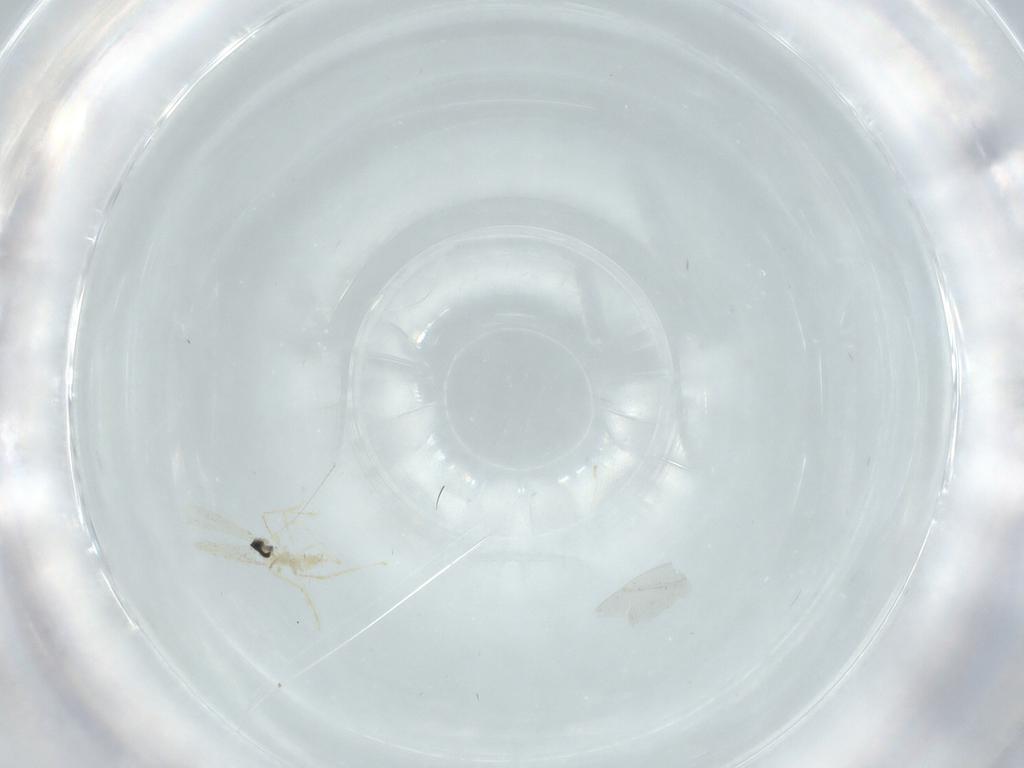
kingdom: Animalia
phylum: Arthropoda
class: Insecta
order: Diptera
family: Cecidomyiidae
